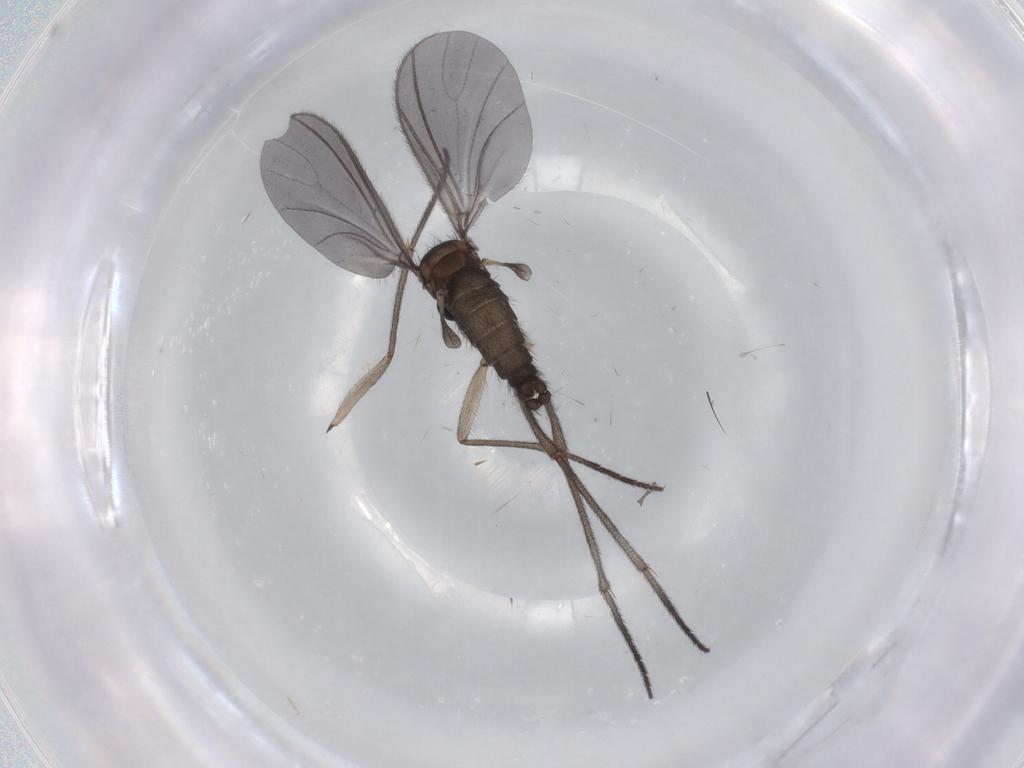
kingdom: Animalia
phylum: Arthropoda
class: Insecta
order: Diptera
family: Sciaridae
